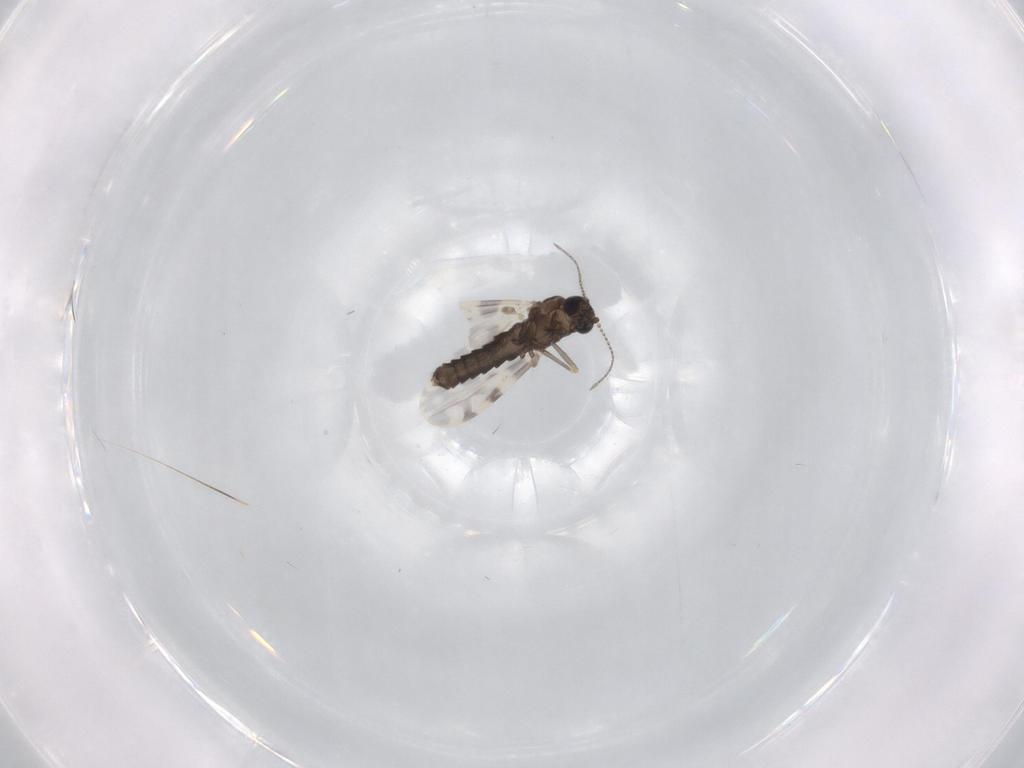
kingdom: Animalia
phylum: Arthropoda
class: Insecta
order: Diptera
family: Ceratopogonidae
